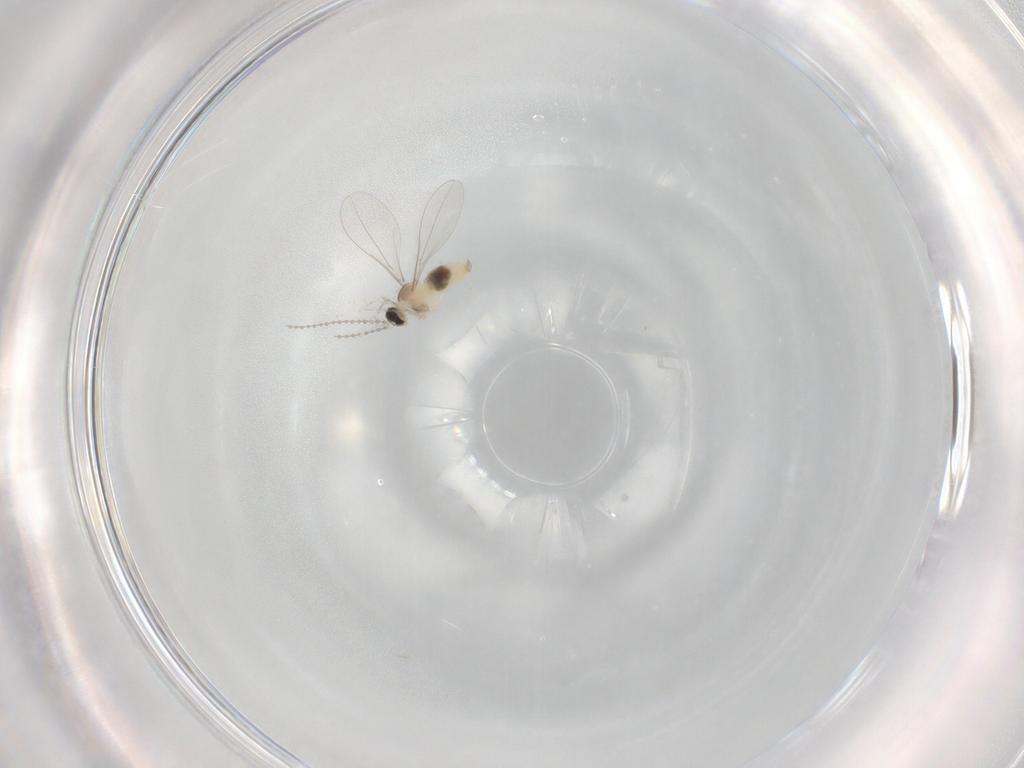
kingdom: Animalia
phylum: Arthropoda
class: Insecta
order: Diptera
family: Cecidomyiidae
